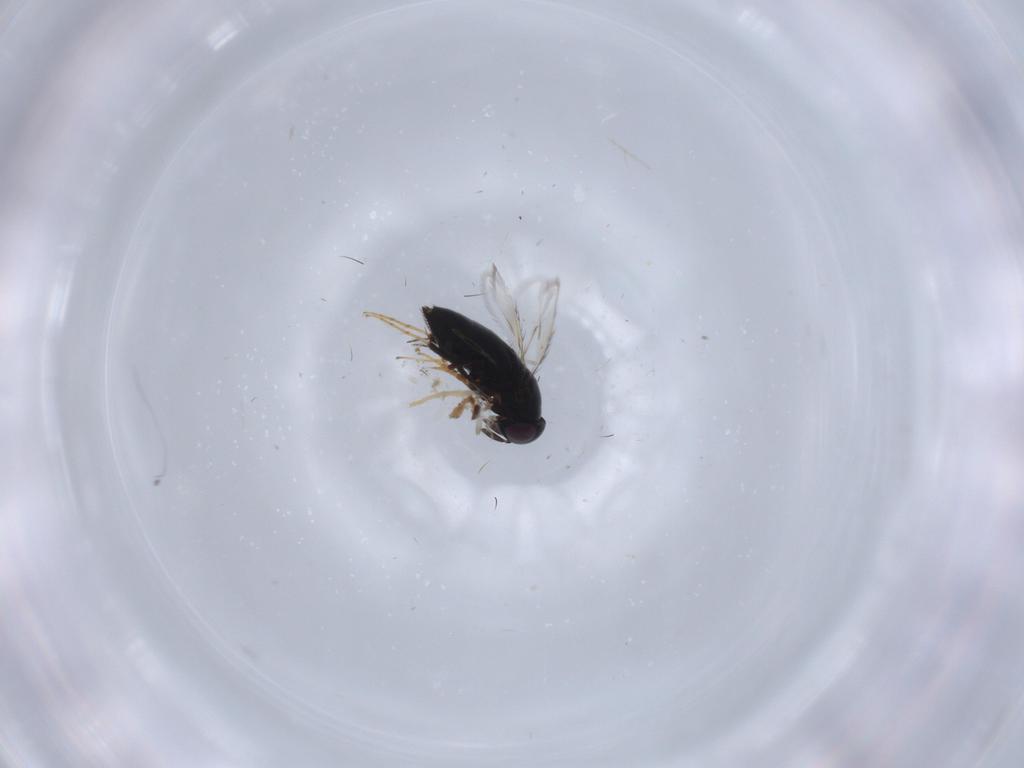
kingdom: Animalia
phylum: Arthropoda
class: Insecta
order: Hymenoptera
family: Signiphoridae
